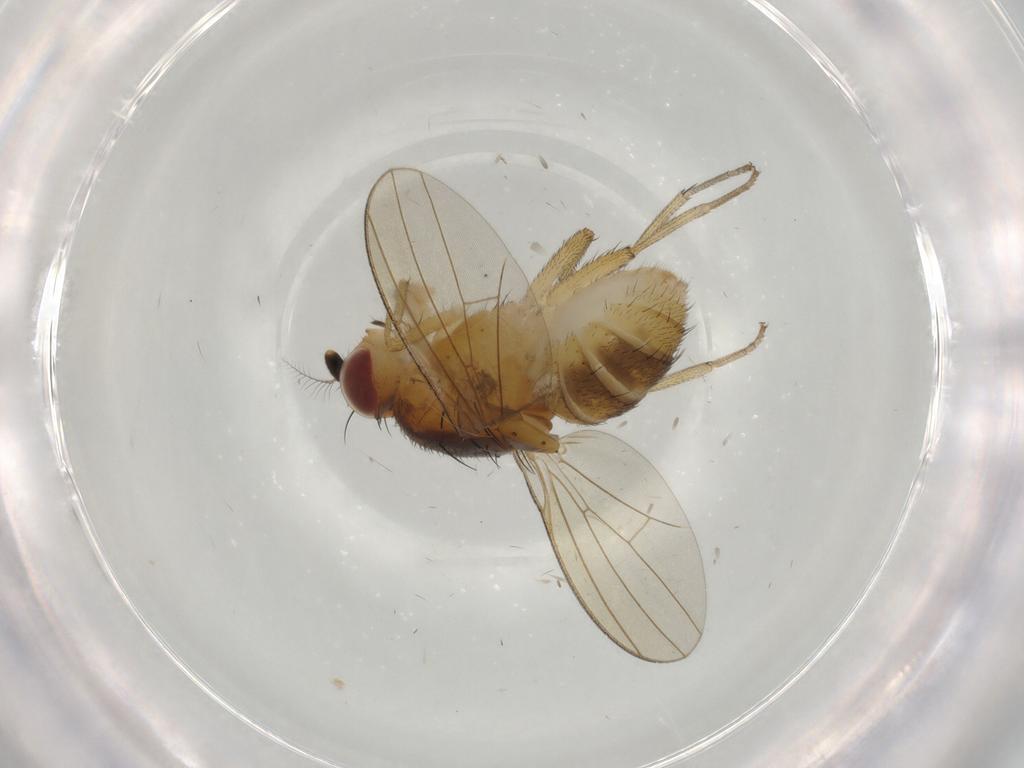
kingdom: Animalia
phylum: Arthropoda
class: Insecta
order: Diptera
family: Lauxaniidae
